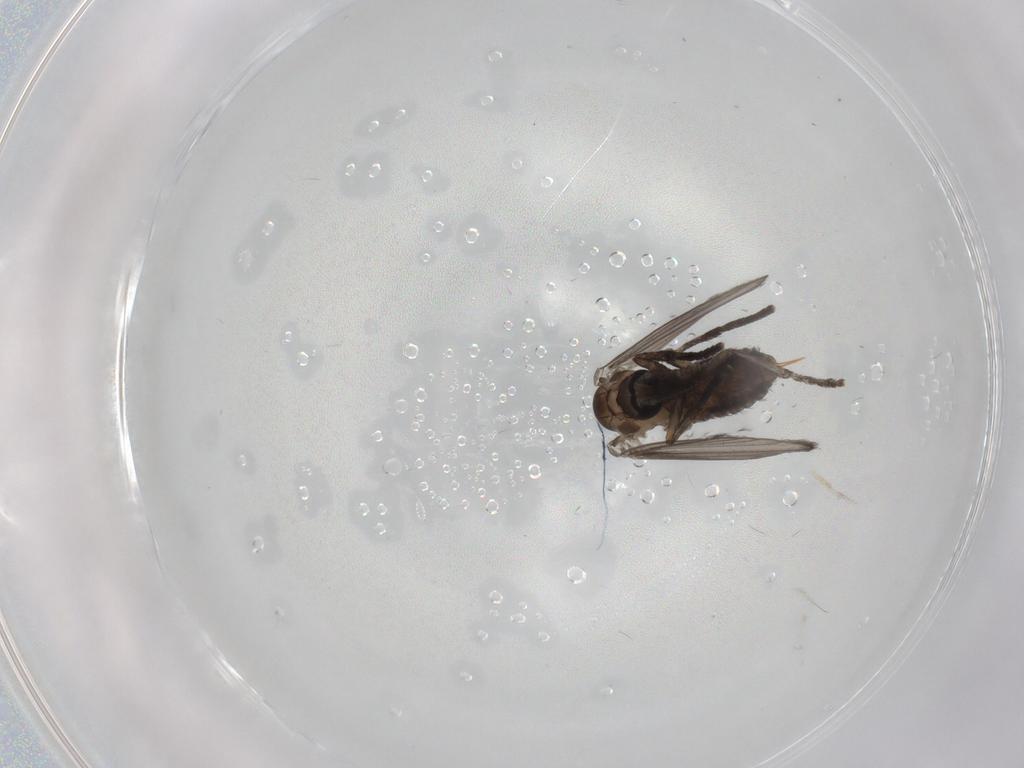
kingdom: Animalia
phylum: Arthropoda
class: Insecta
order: Diptera
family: Psychodidae
